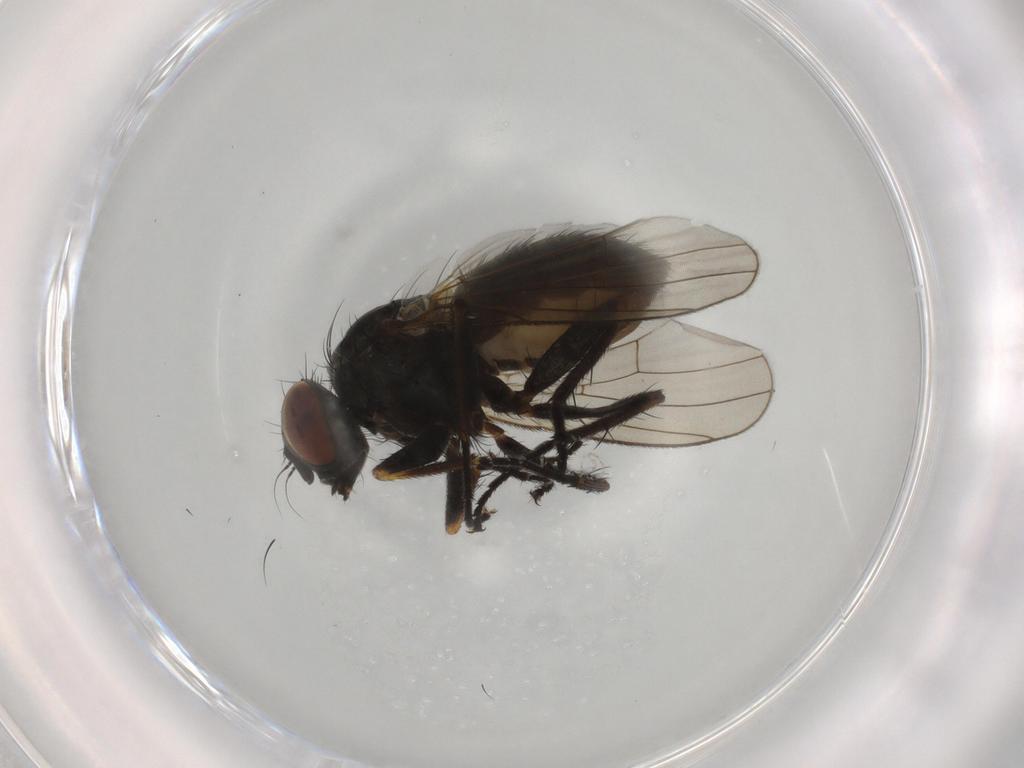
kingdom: Animalia
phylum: Arthropoda
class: Insecta
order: Diptera
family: Muscidae
